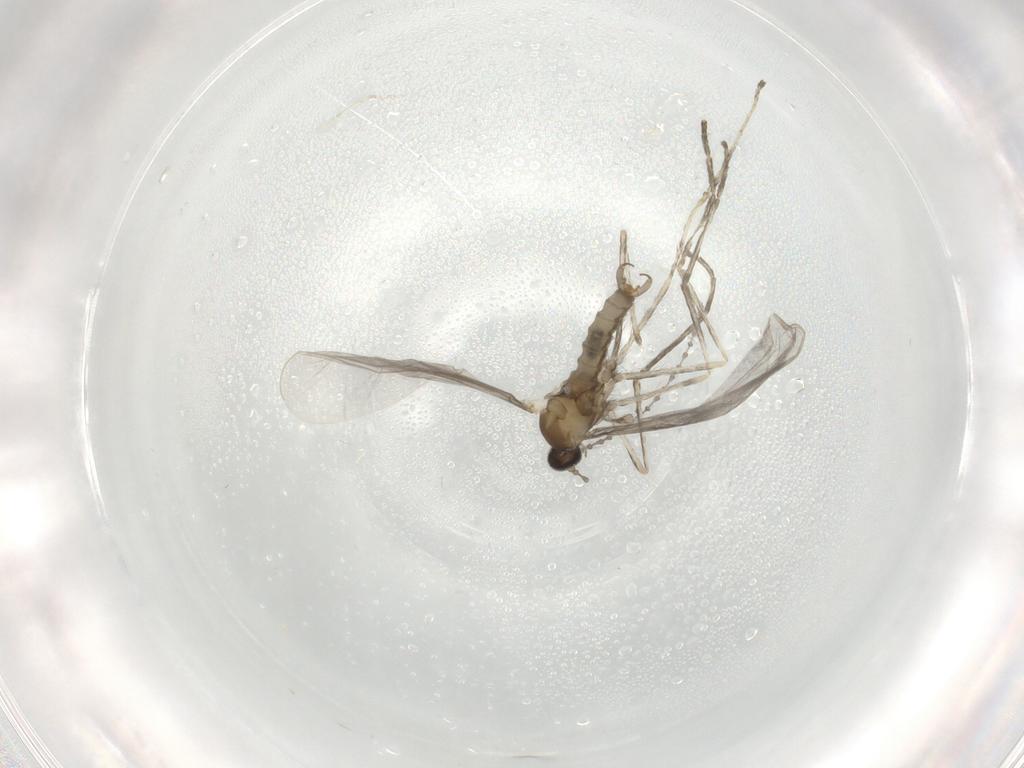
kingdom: Animalia
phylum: Arthropoda
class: Insecta
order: Diptera
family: Cecidomyiidae
